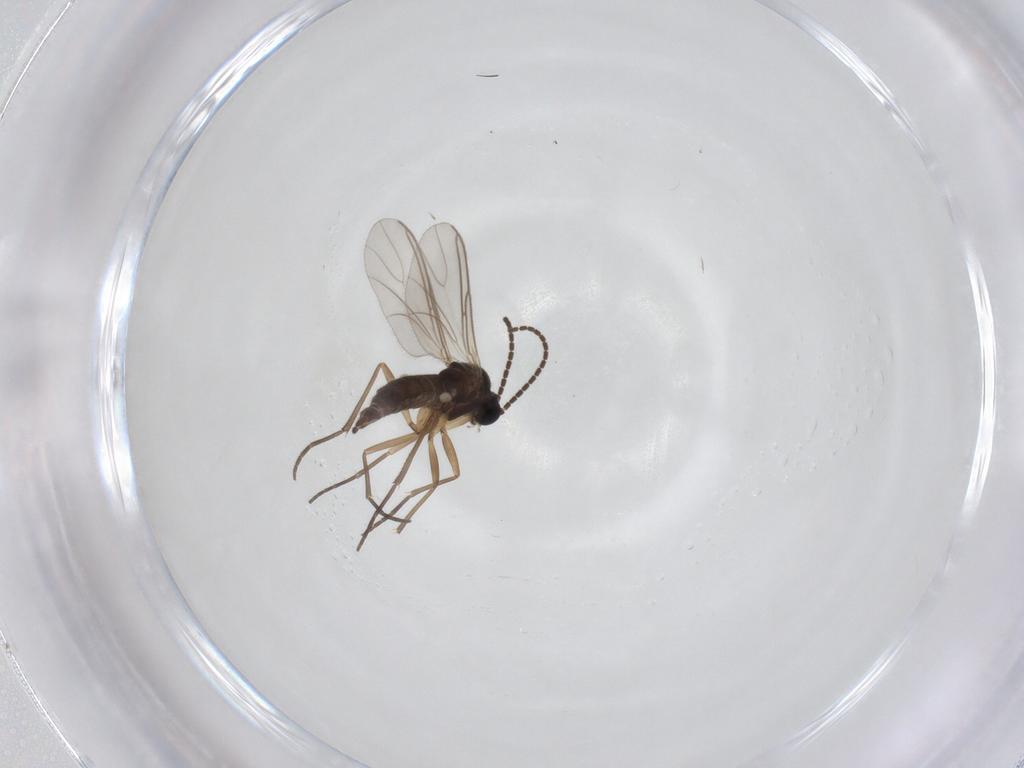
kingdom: Animalia
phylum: Arthropoda
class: Insecta
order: Diptera
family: Sciaridae
